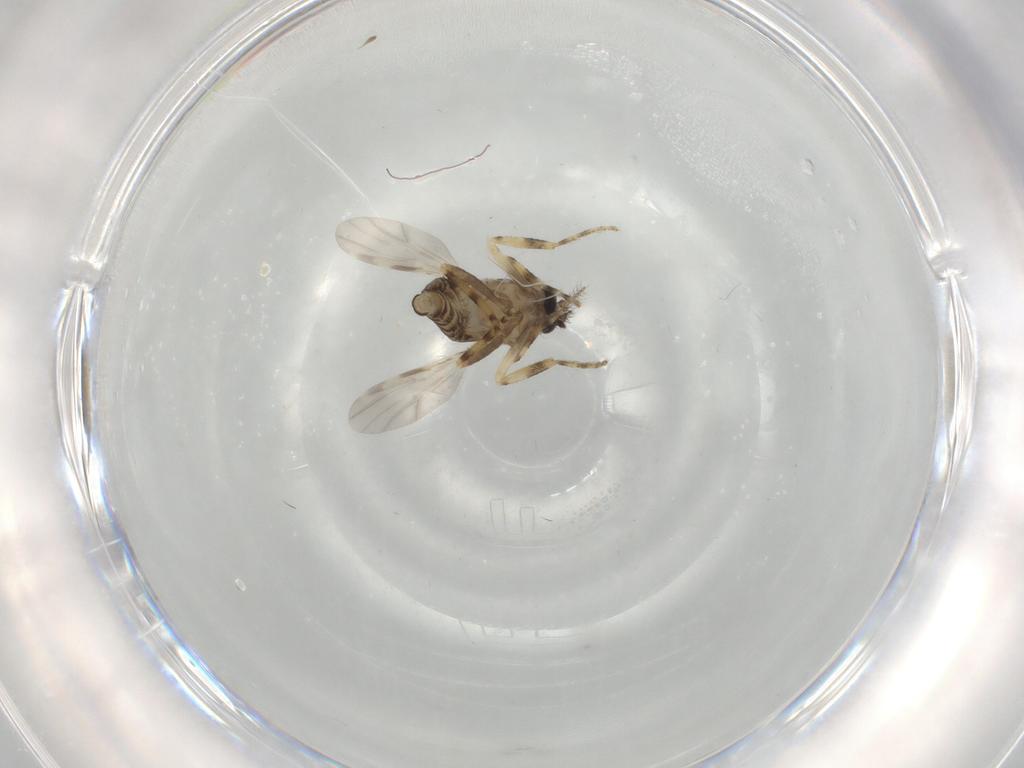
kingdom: Animalia
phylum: Arthropoda
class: Insecta
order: Diptera
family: Ceratopogonidae
